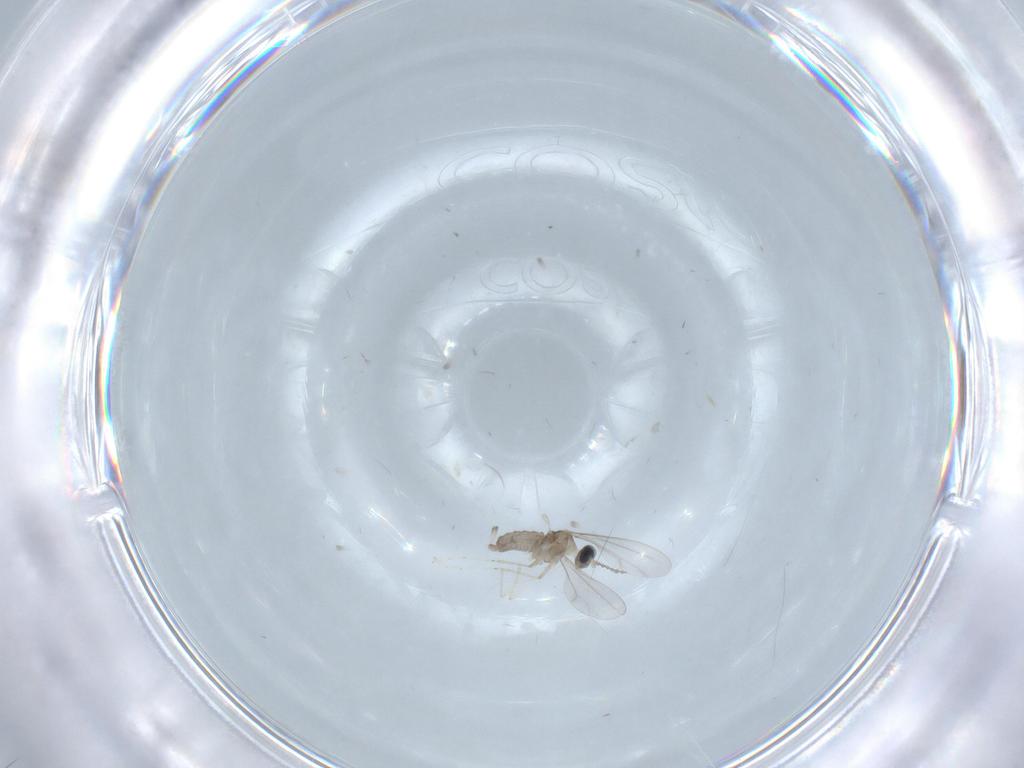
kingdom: Animalia
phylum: Arthropoda
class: Insecta
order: Diptera
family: Cecidomyiidae
